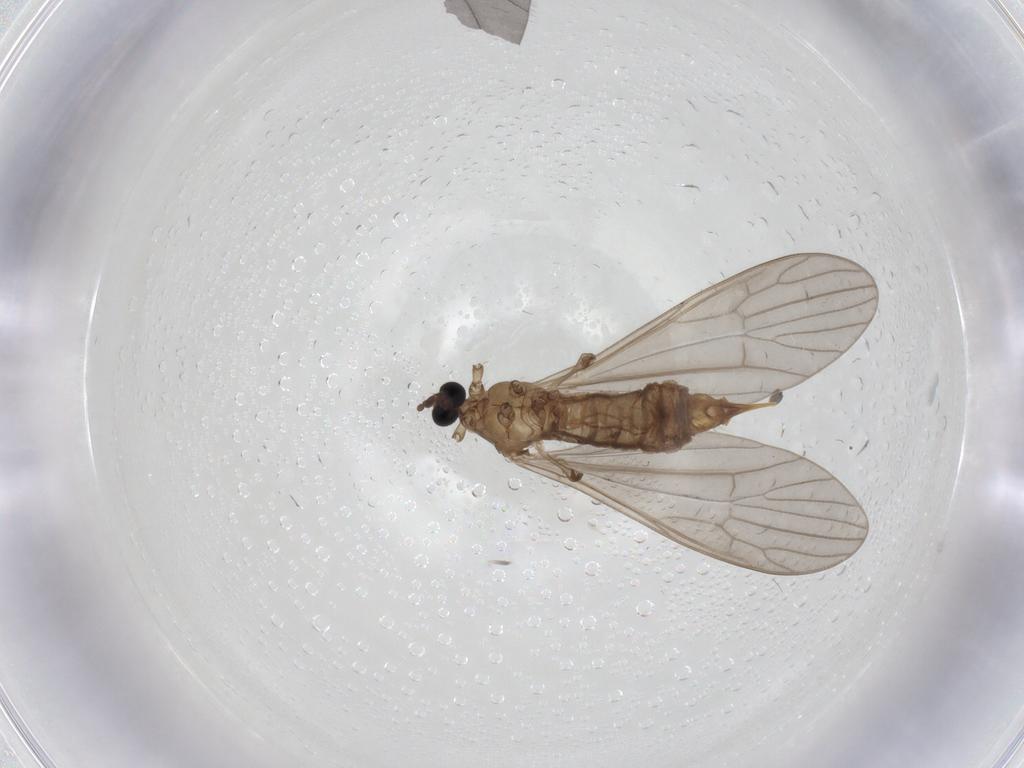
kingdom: Animalia
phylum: Arthropoda
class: Insecta
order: Diptera
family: Limoniidae
